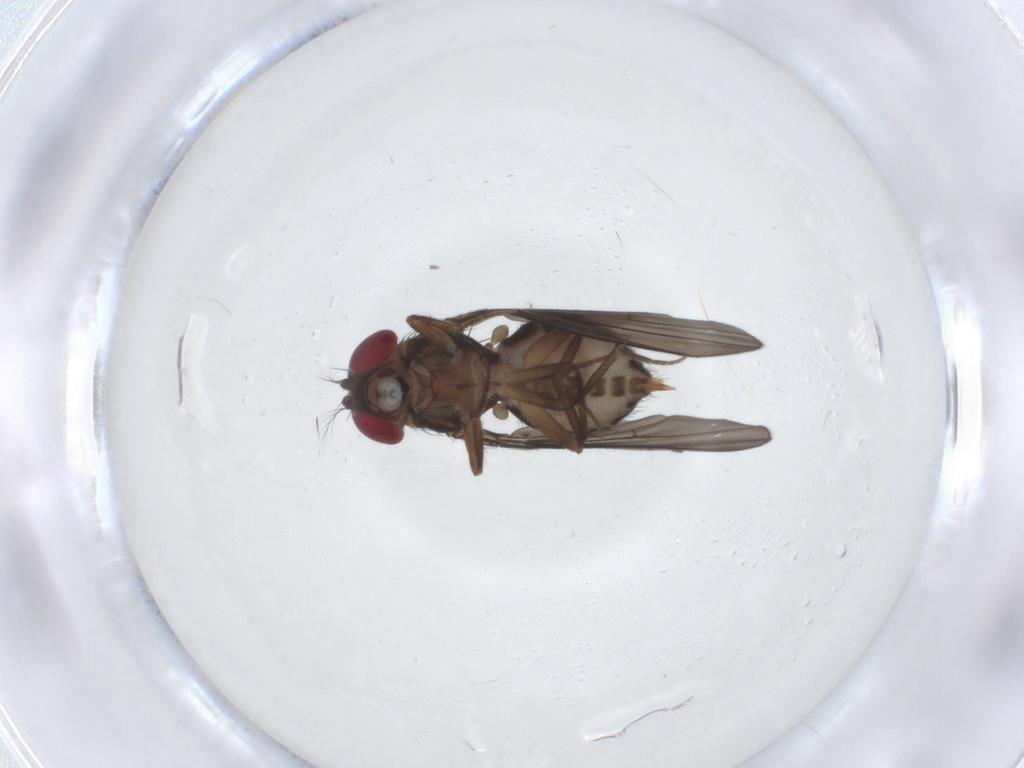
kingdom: Animalia
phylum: Arthropoda
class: Insecta
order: Diptera
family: Drosophilidae
